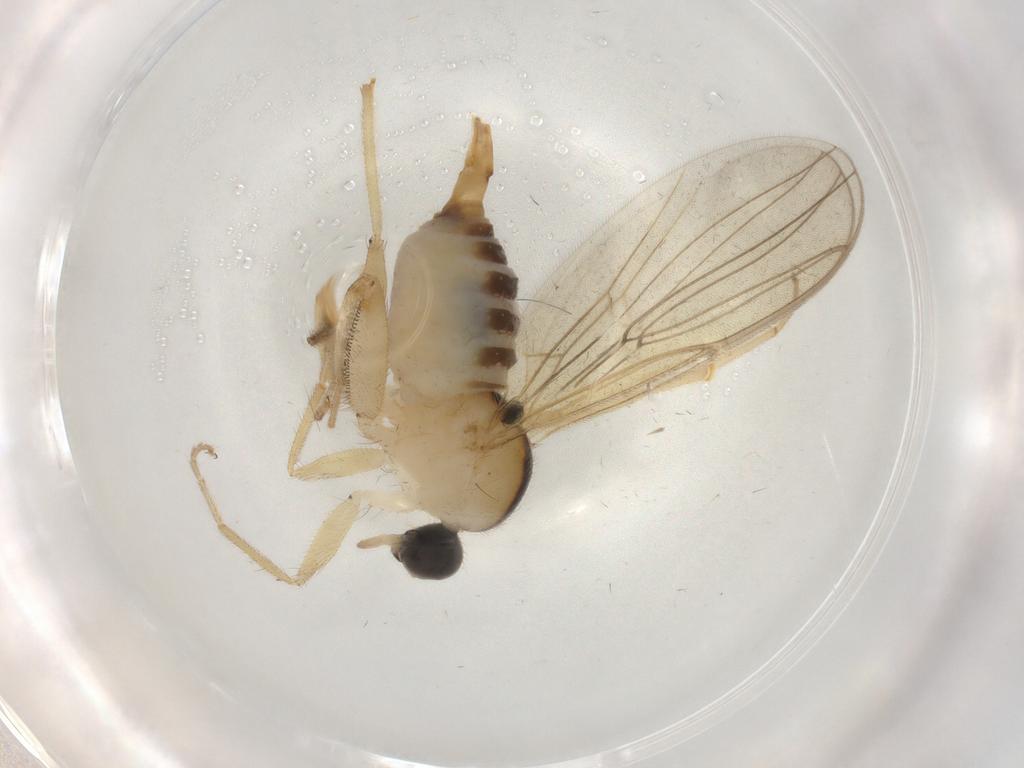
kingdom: Animalia
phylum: Arthropoda
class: Insecta
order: Diptera
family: Hybotidae
